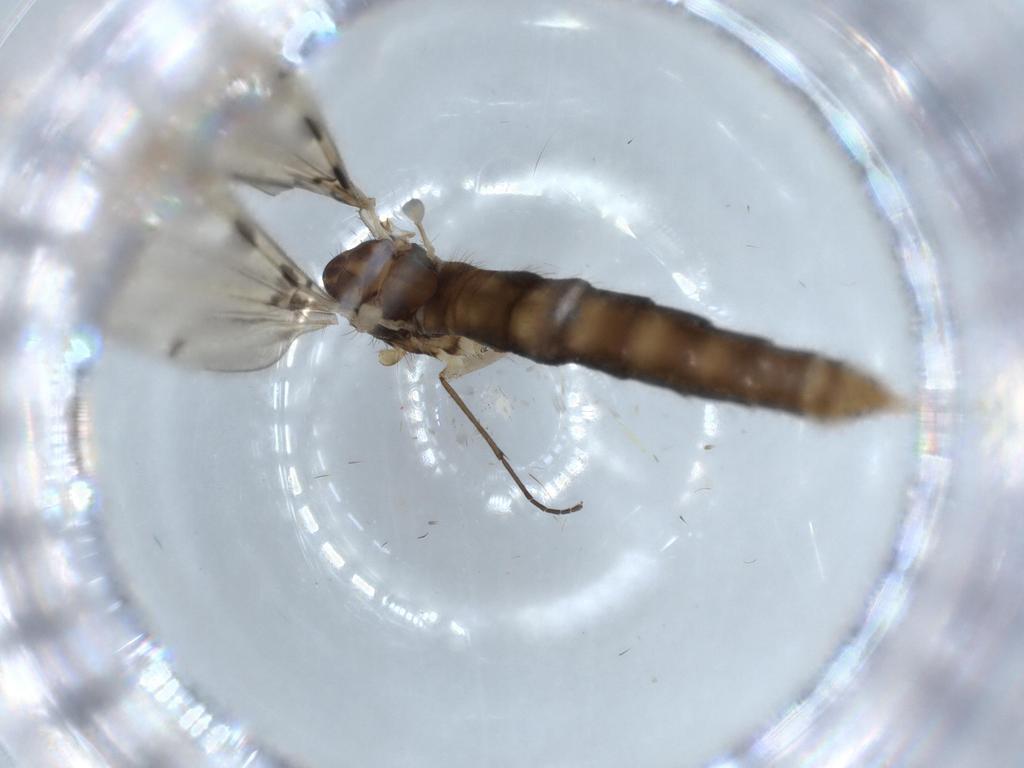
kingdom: Animalia
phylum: Arthropoda
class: Insecta
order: Diptera
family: Limoniidae
